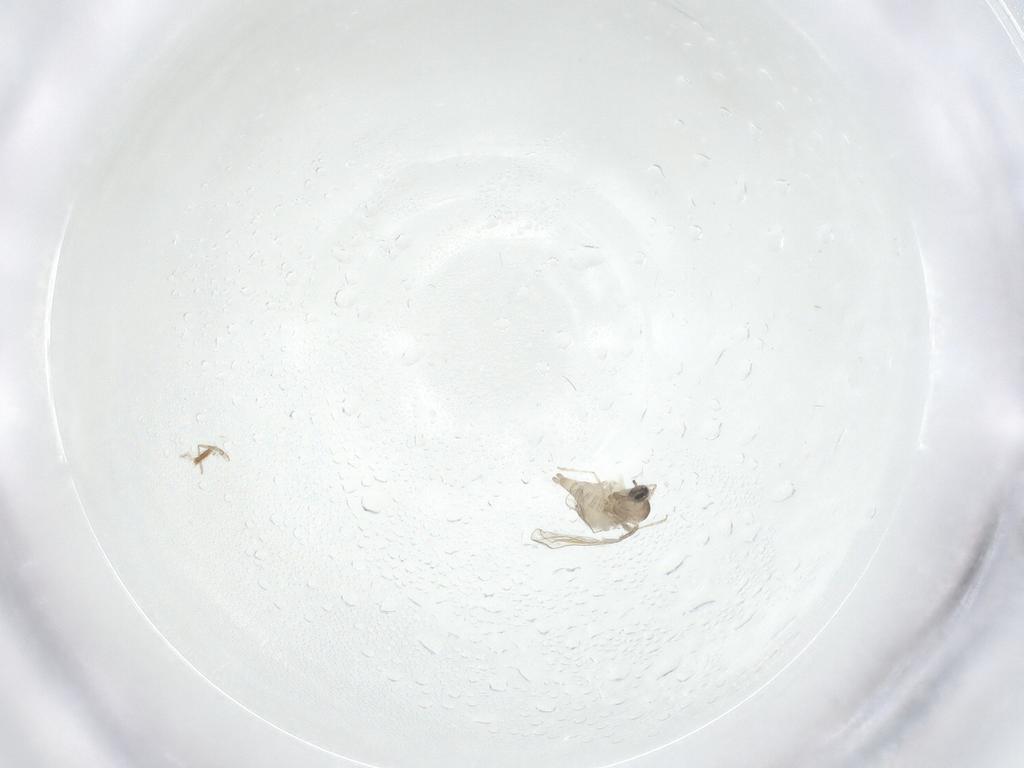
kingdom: Animalia
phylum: Arthropoda
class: Insecta
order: Diptera
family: Cecidomyiidae
